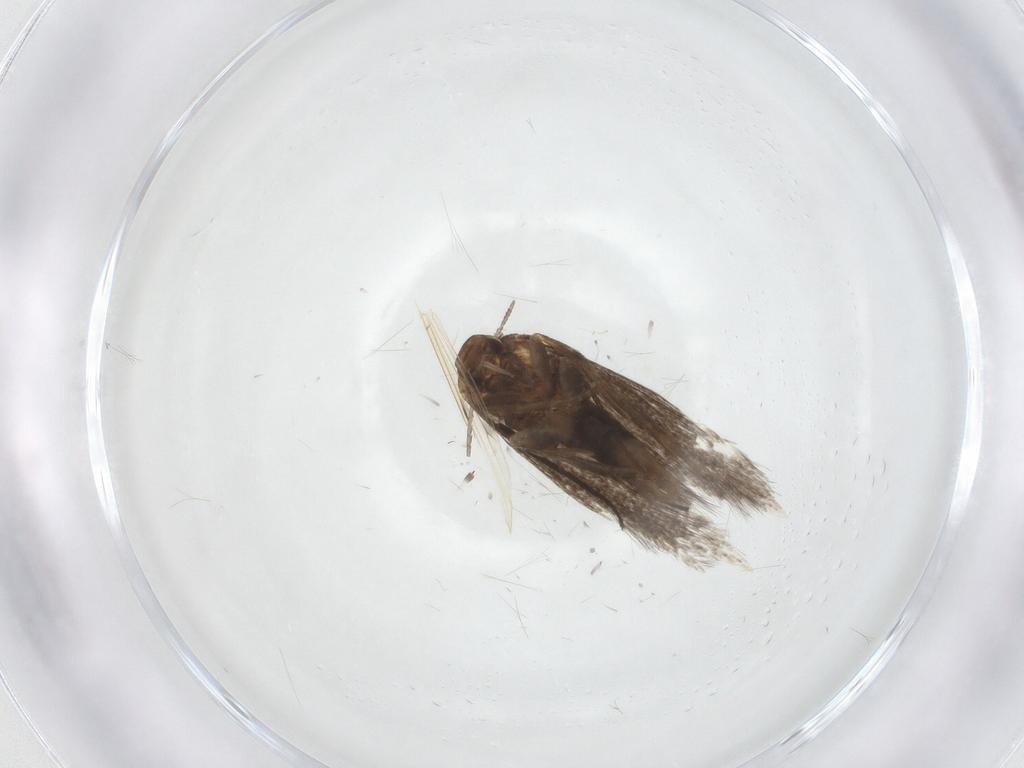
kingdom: Animalia
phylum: Arthropoda
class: Insecta
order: Lepidoptera
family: Elachistidae
